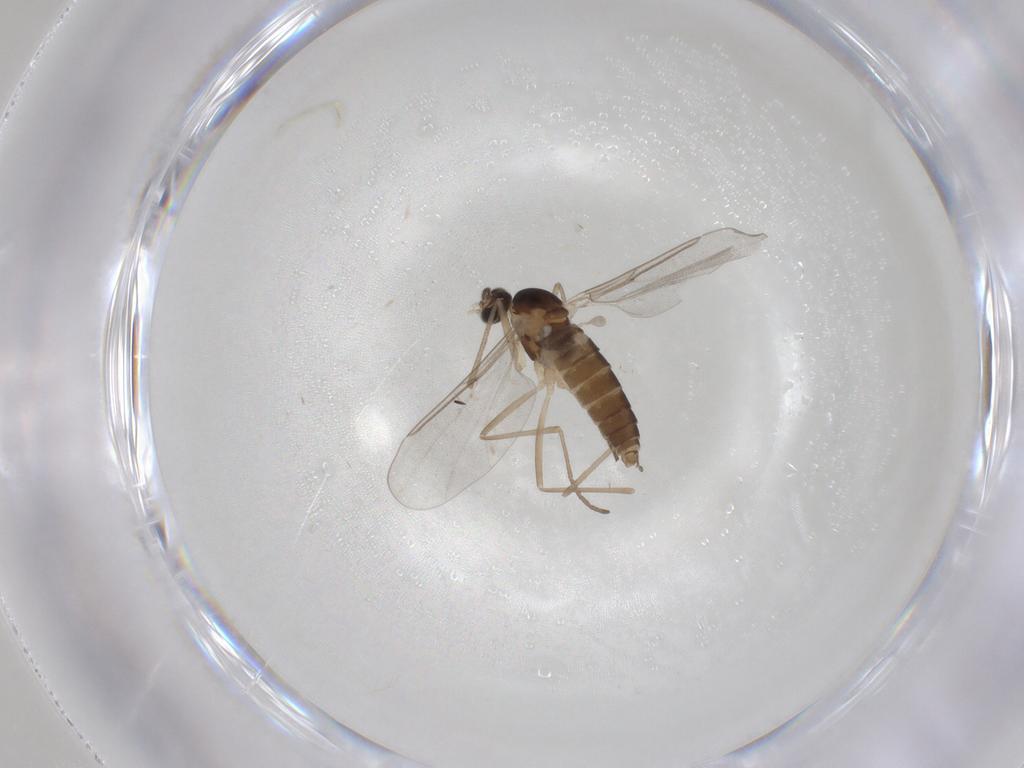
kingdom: Animalia
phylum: Arthropoda
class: Insecta
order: Diptera
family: Cecidomyiidae
